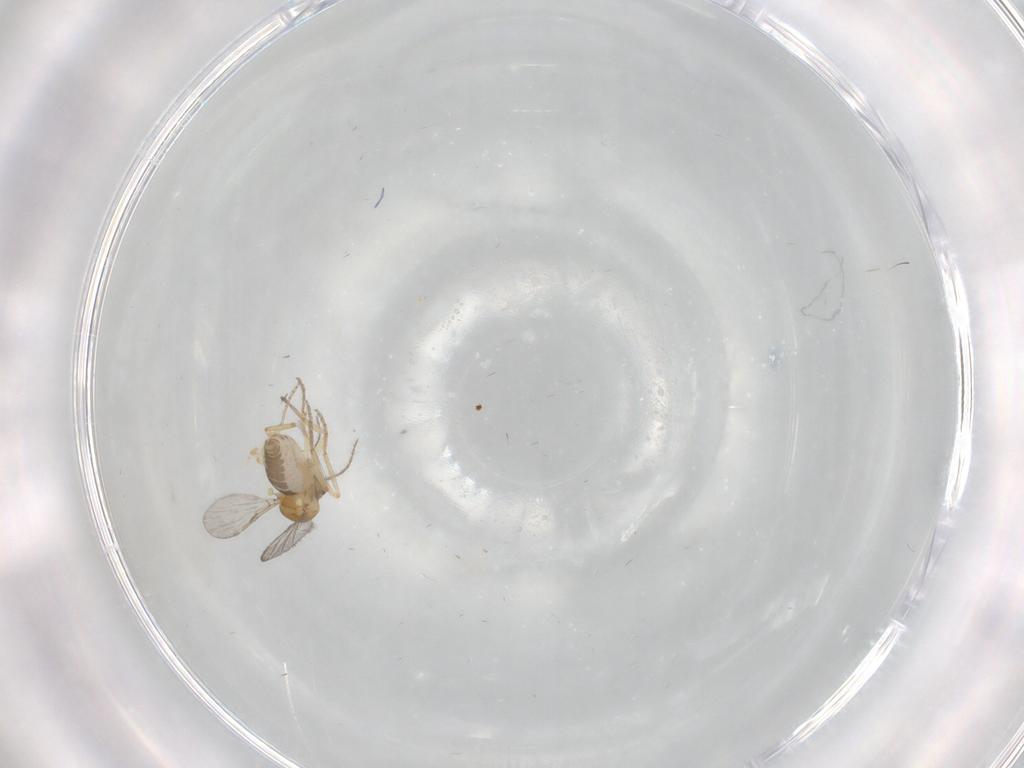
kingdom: Animalia
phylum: Arthropoda
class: Insecta
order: Diptera
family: Ceratopogonidae
